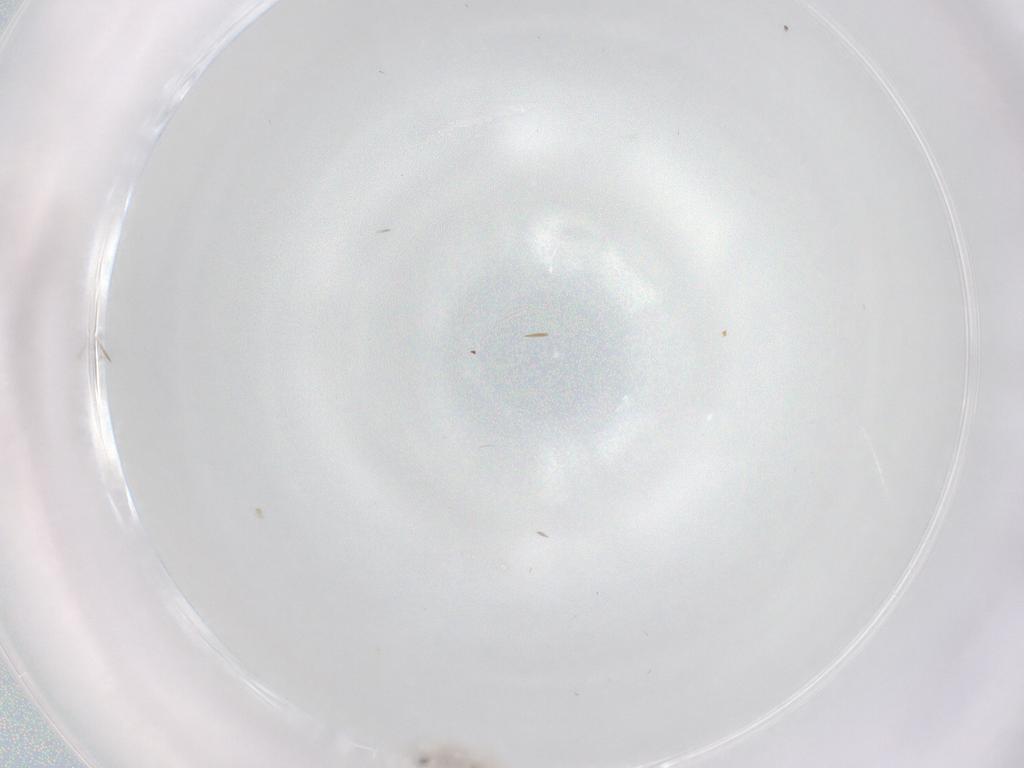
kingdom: Animalia
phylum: Arthropoda
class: Insecta
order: Diptera
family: Cecidomyiidae
